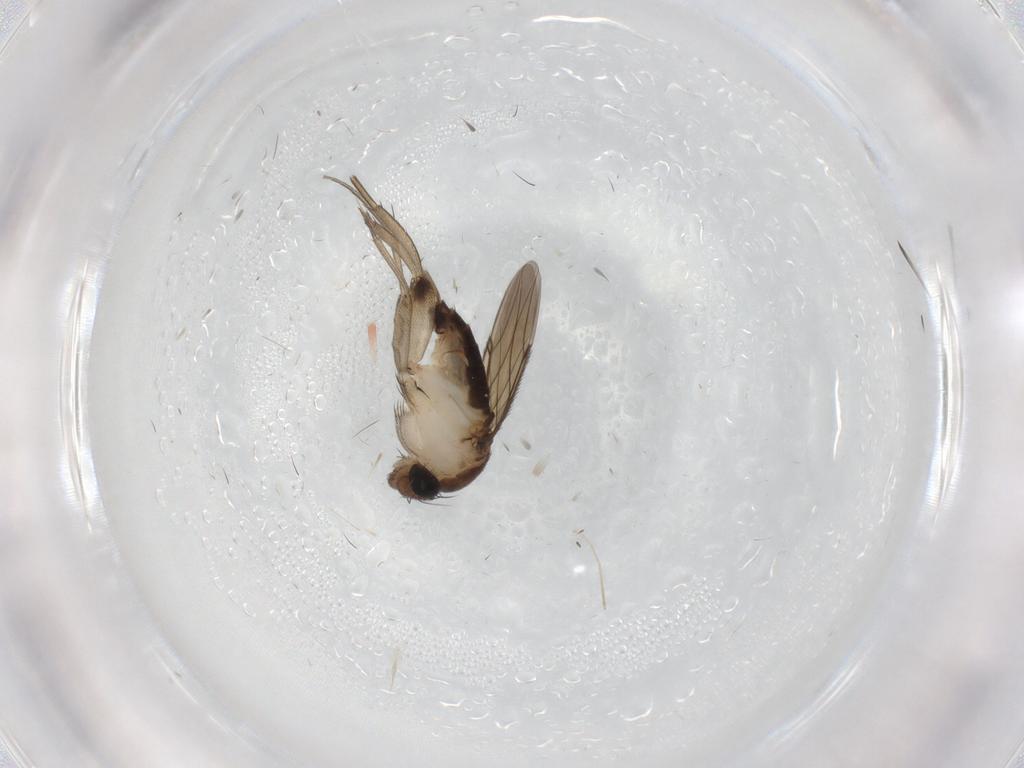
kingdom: Animalia
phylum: Arthropoda
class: Insecta
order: Diptera
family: Phoridae
